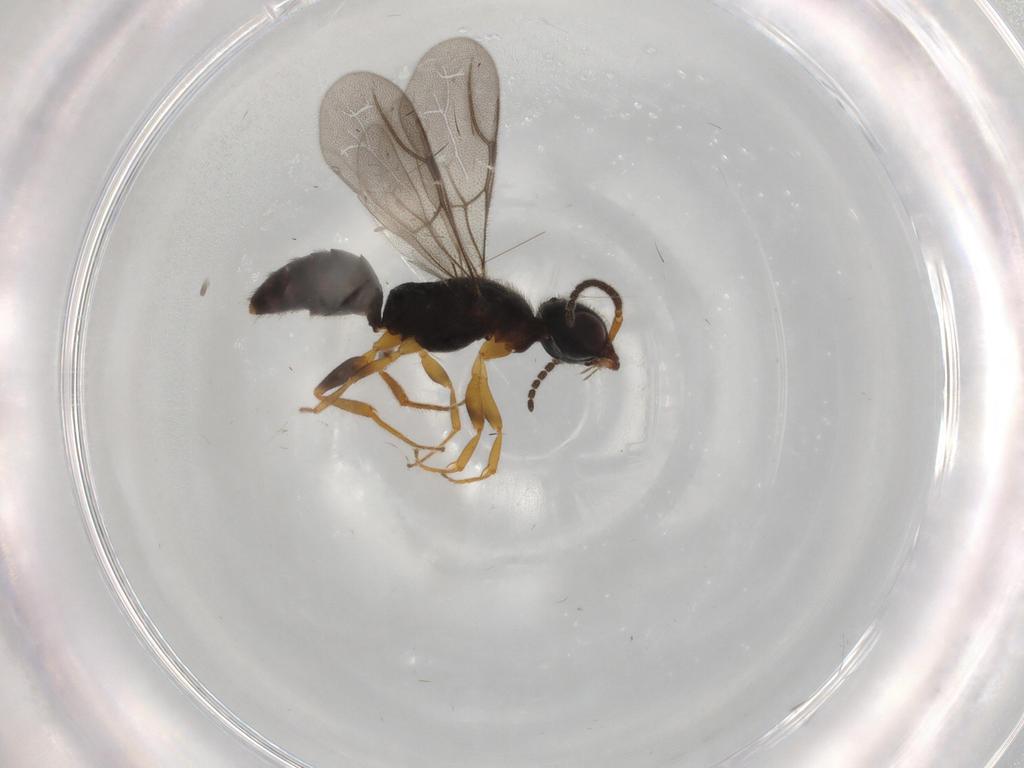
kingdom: Animalia
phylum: Arthropoda
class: Insecta
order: Hymenoptera
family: Bethylidae
